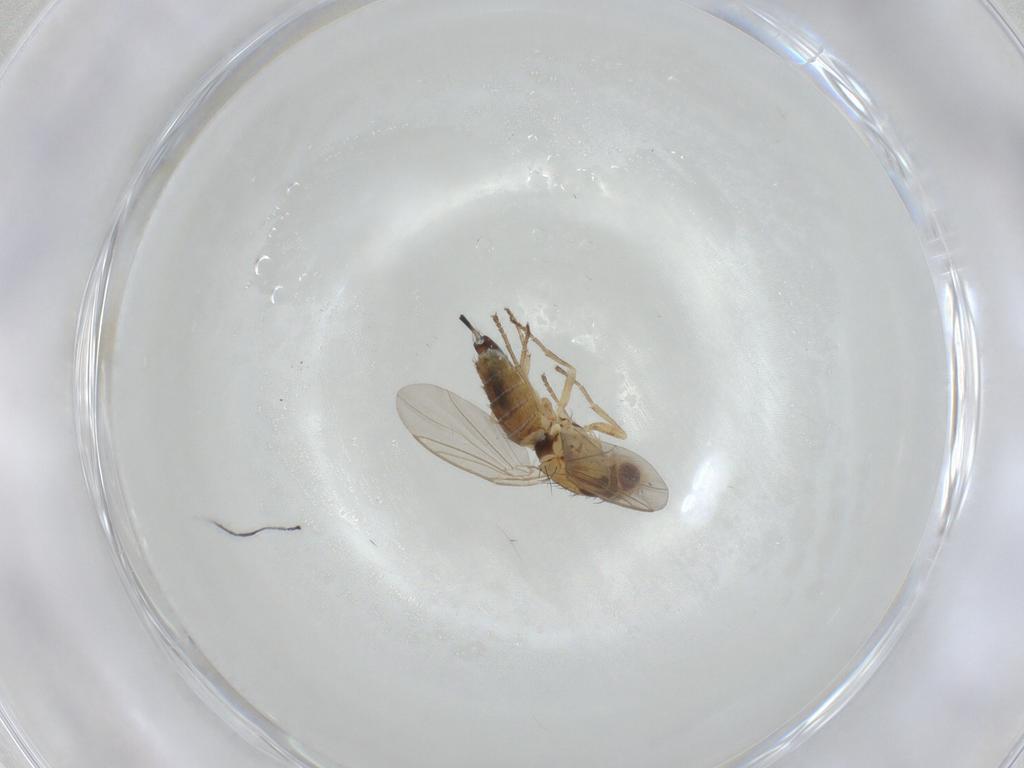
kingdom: Animalia
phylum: Arthropoda
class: Insecta
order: Diptera
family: Agromyzidae
